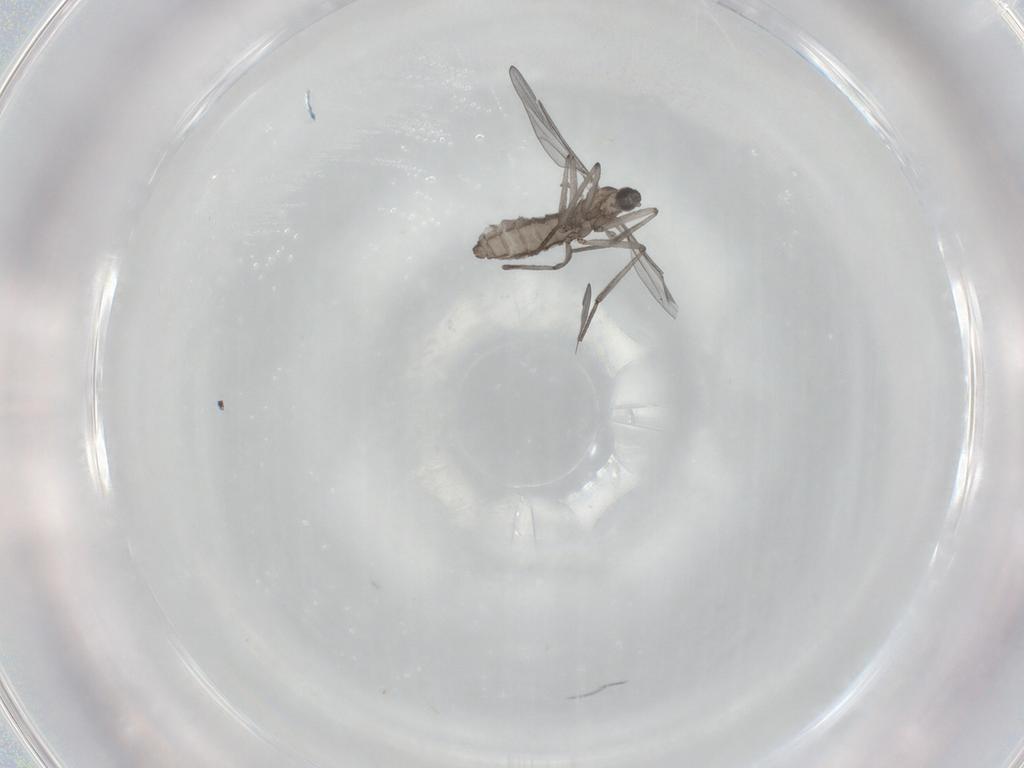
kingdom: Animalia
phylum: Arthropoda
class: Insecta
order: Diptera
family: Cecidomyiidae
